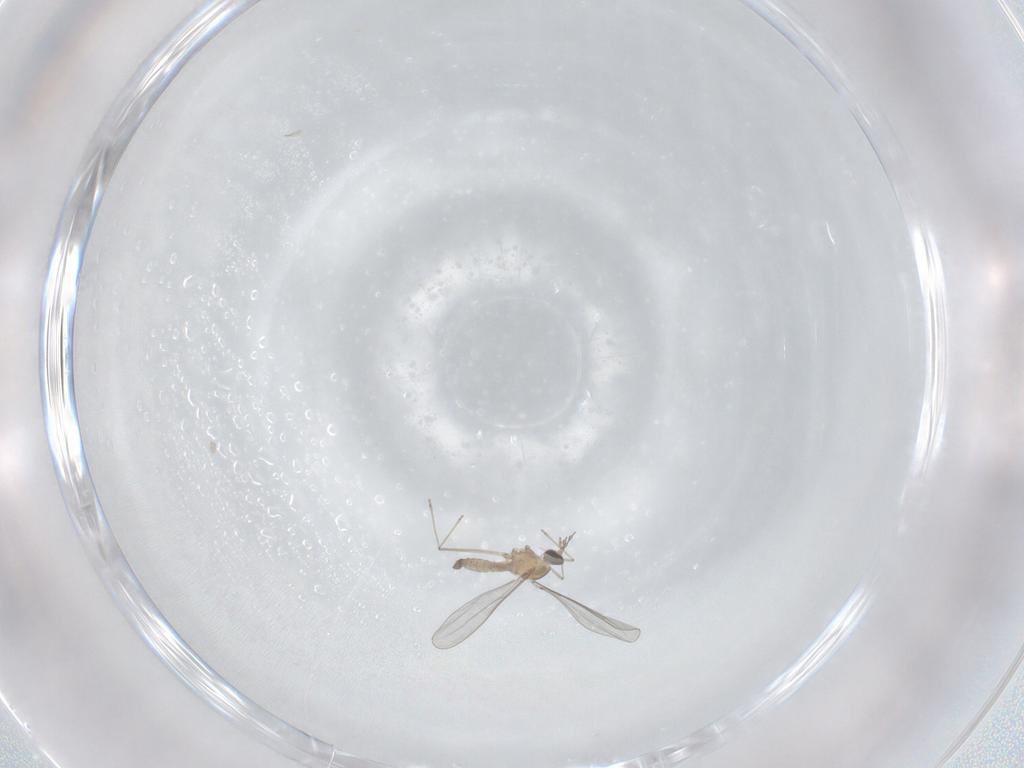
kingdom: Animalia
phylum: Arthropoda
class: Insecta
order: Diptera
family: Cecidomyiidae
